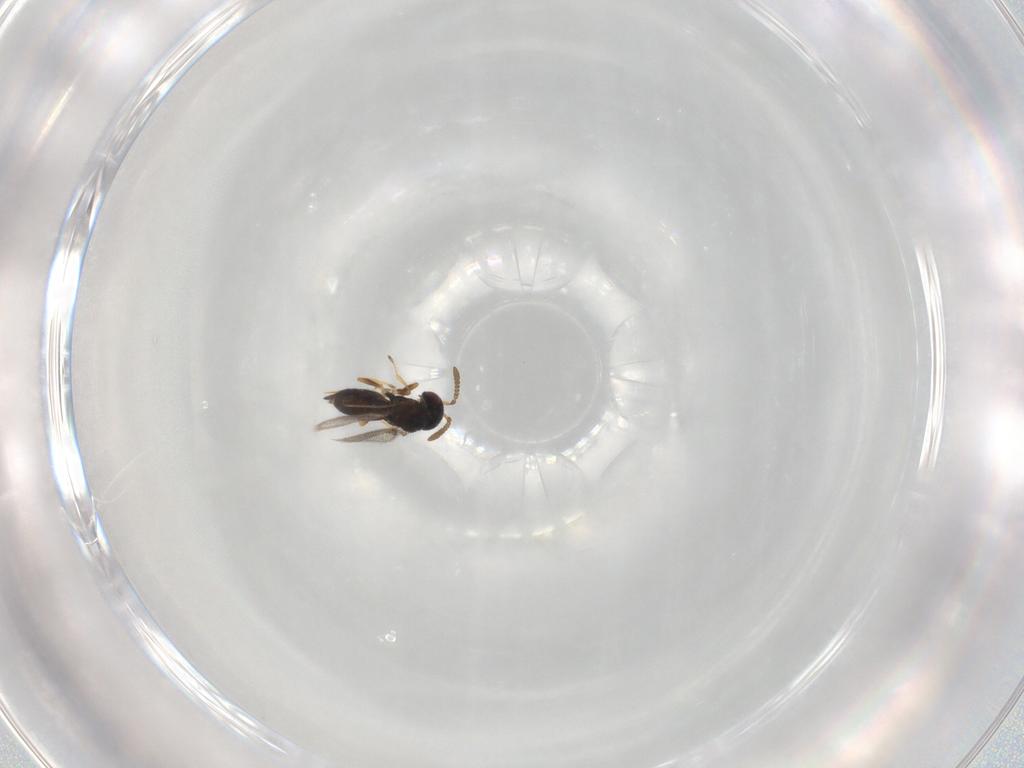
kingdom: Animalia
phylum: Arthropoda
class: Insecta
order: Hymenoptera
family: Pirenidae
